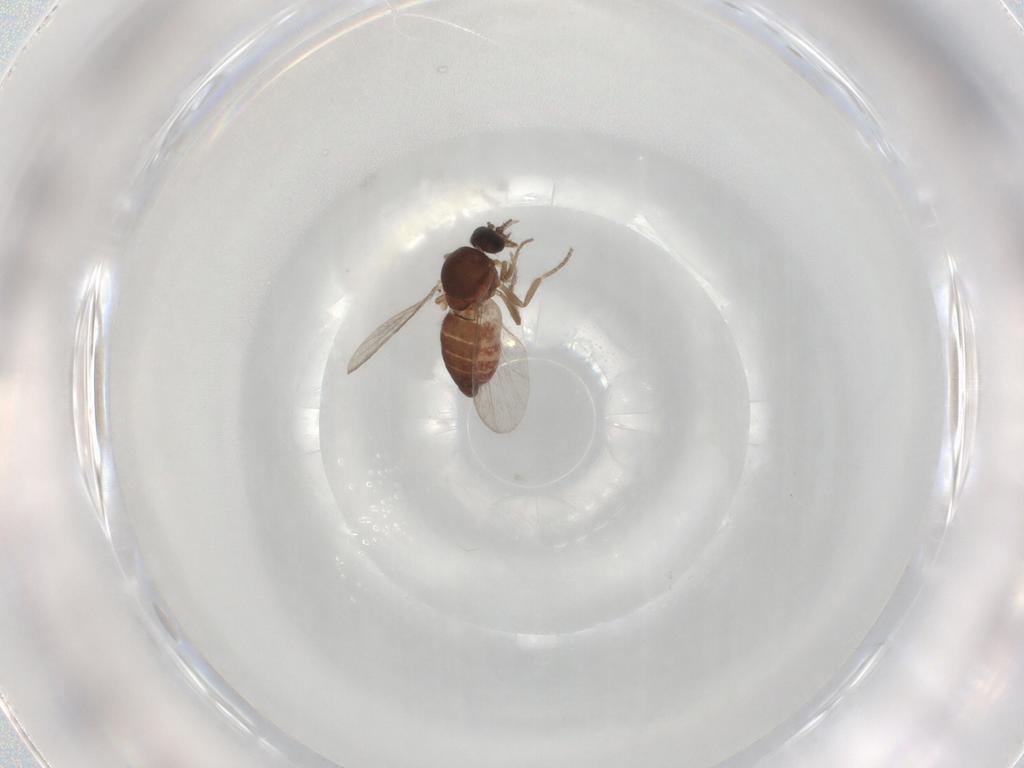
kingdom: Animalia
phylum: Arthropoda
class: Insecta
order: Diptera
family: Ceratopogonidae
